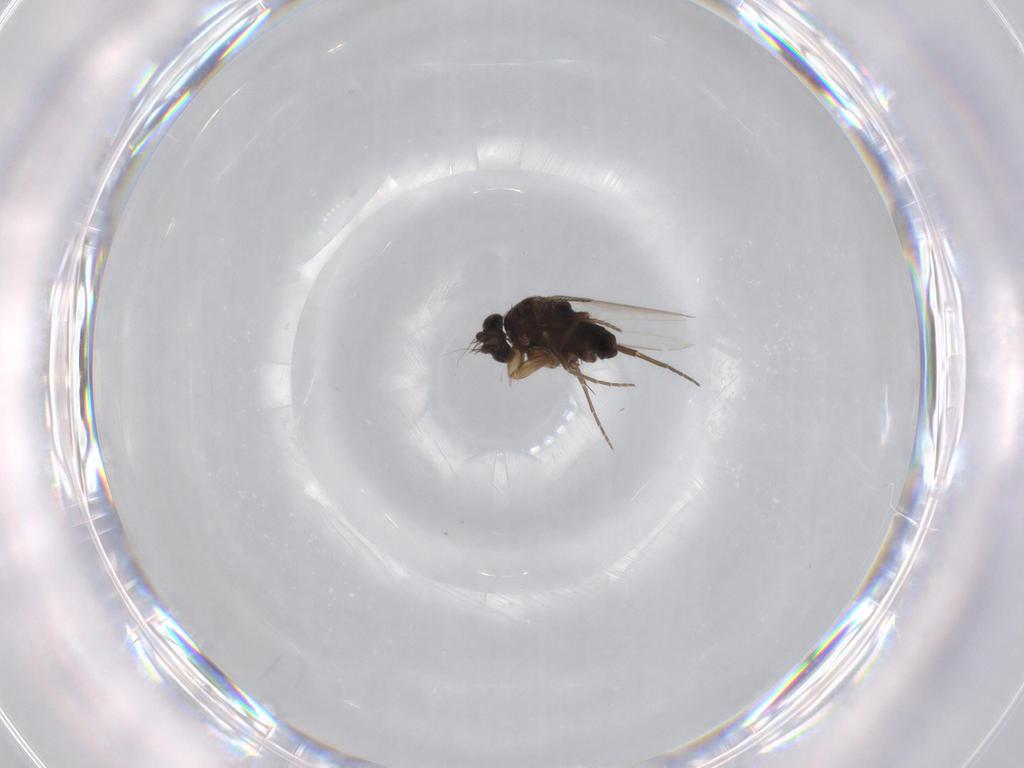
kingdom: Animalia
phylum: Arthropoda
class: Insecta
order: Diptera
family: Phoridae
